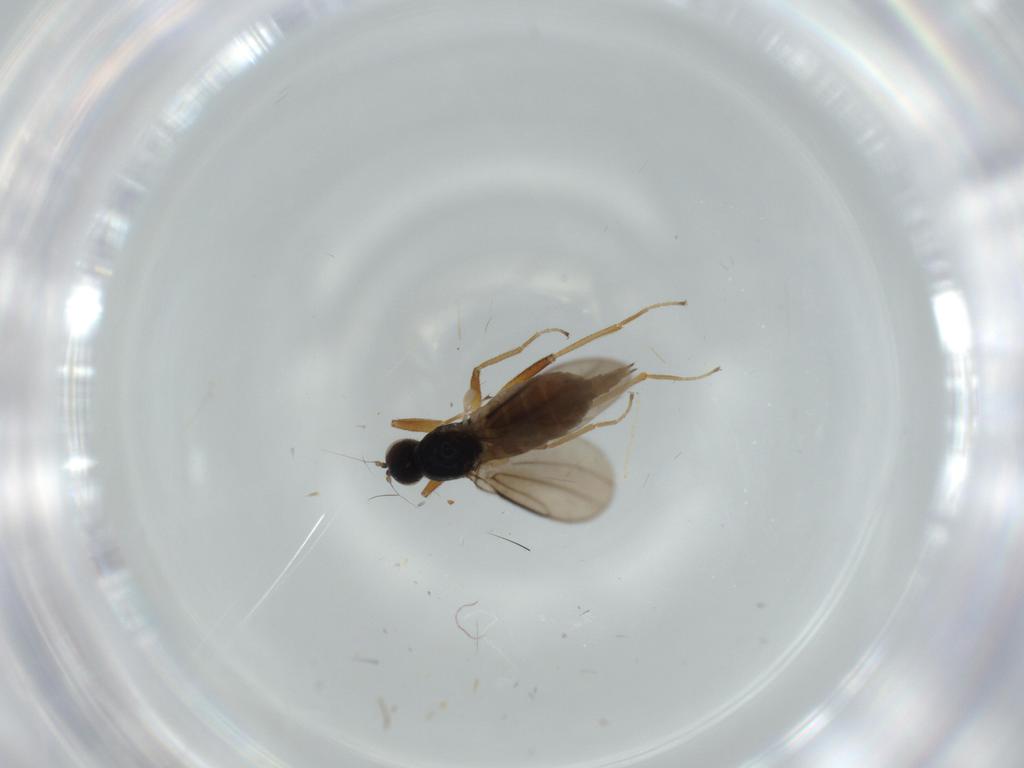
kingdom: Animalia
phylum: Arthropoda
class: Insecta
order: Diptera
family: Hybotidae
